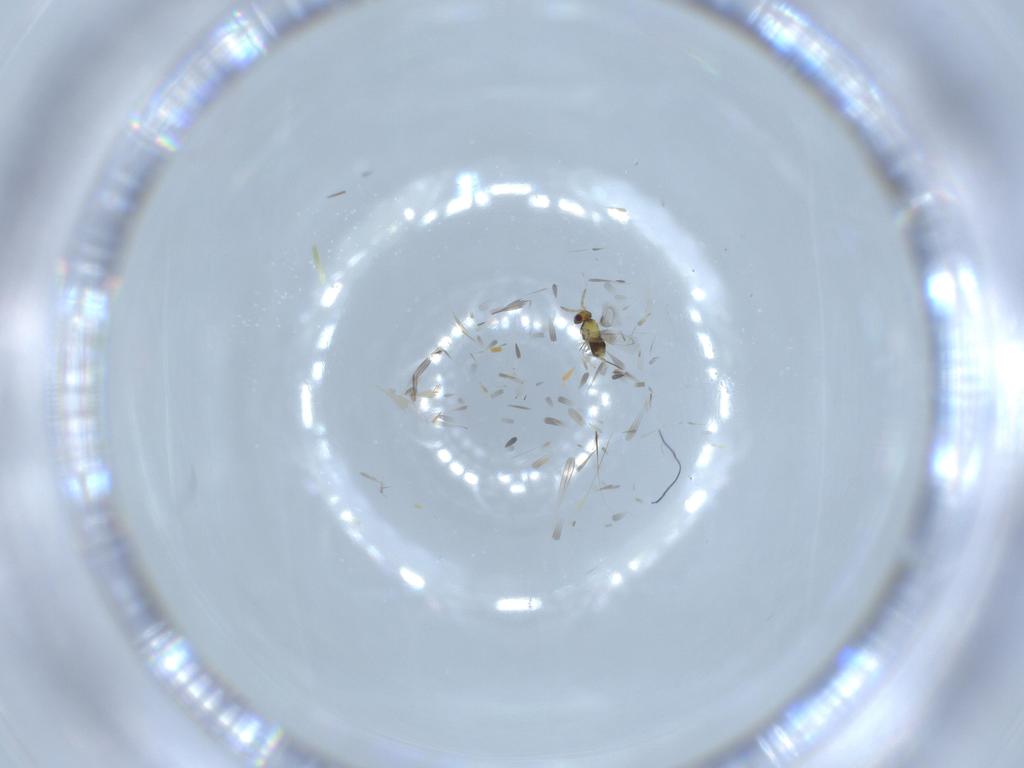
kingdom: Animalia
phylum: Arthropoda
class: Insecta
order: Hymenoptera
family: Aphelinidae
